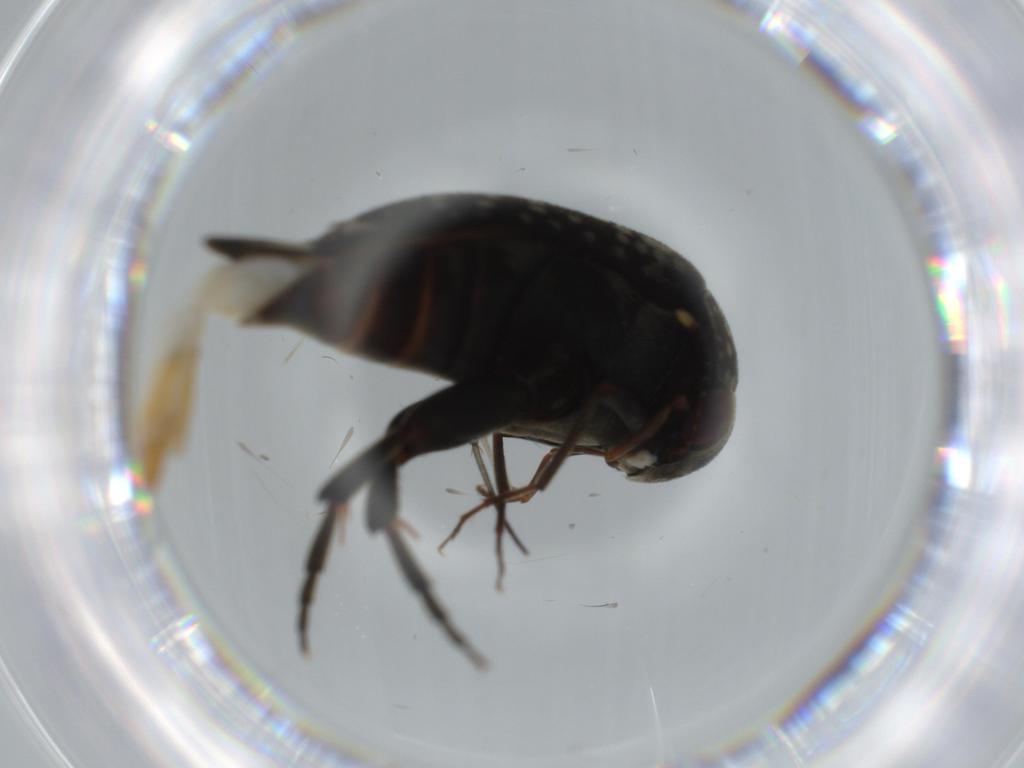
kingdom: Animalia
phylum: Arthropoda
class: Insecta
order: Coleoptera
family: Mordellidae
